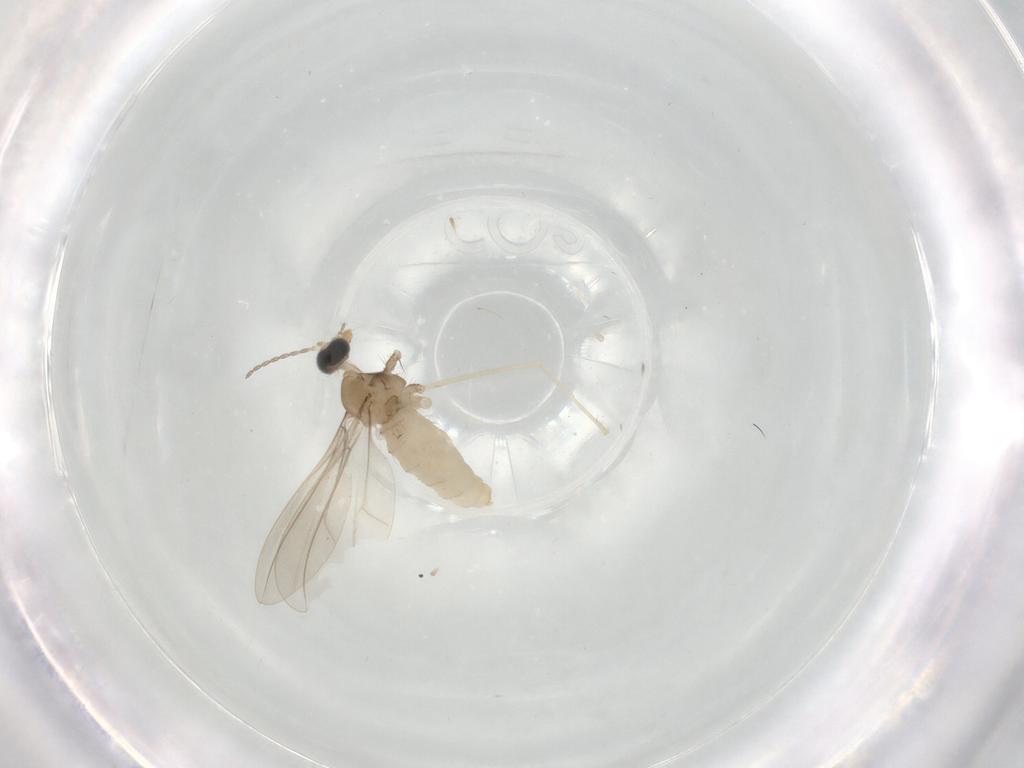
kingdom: Animalia
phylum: Arthropoda
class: Insecta
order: Diptera
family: Cecidomyiidae
